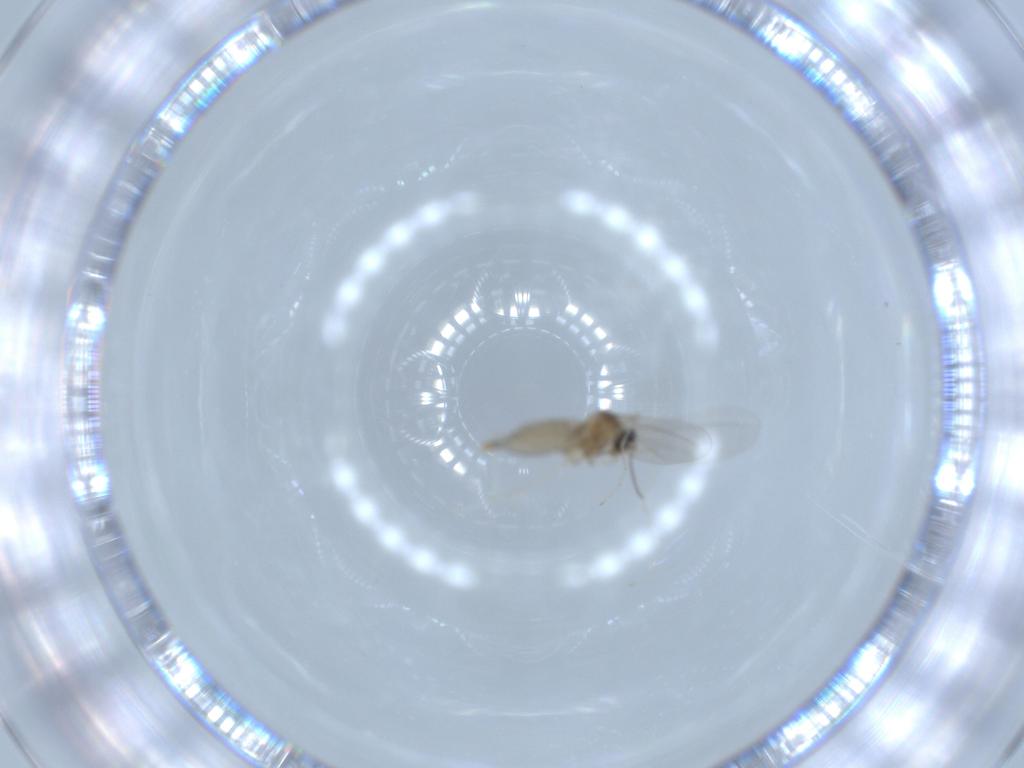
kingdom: Animalia
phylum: Arthropoda
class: Insecta
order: Diptera
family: Cecidomyiidae
